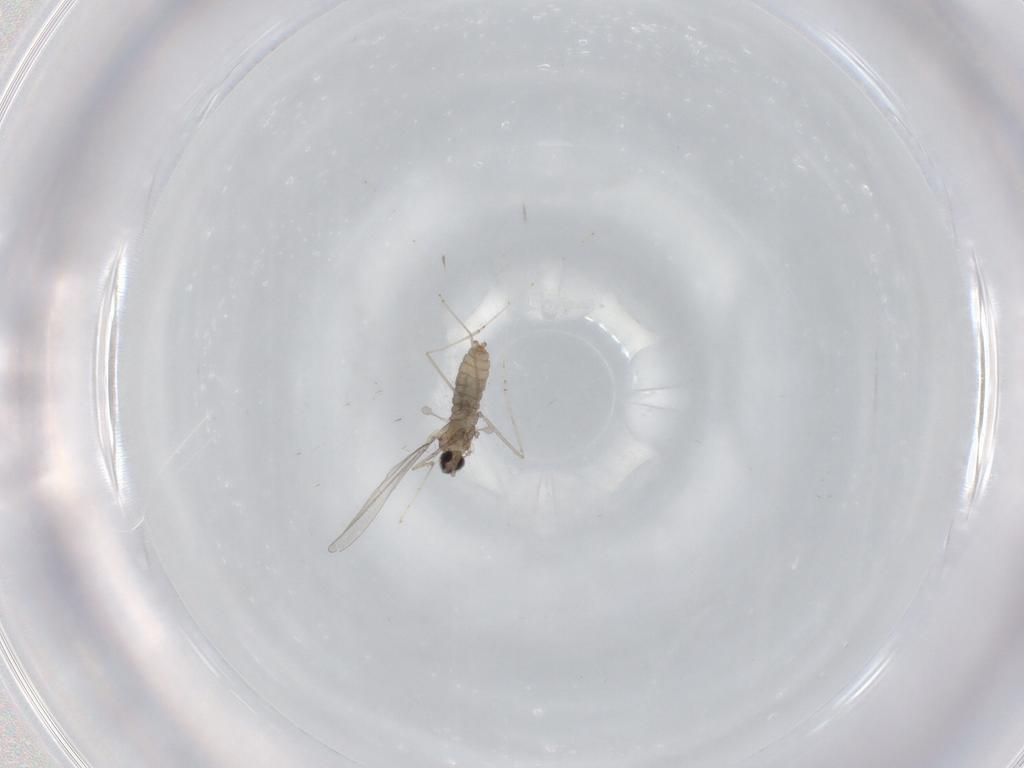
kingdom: Animalia
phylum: Arthropoda
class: Insecta
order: Diptera
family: Cecidomyiidae
